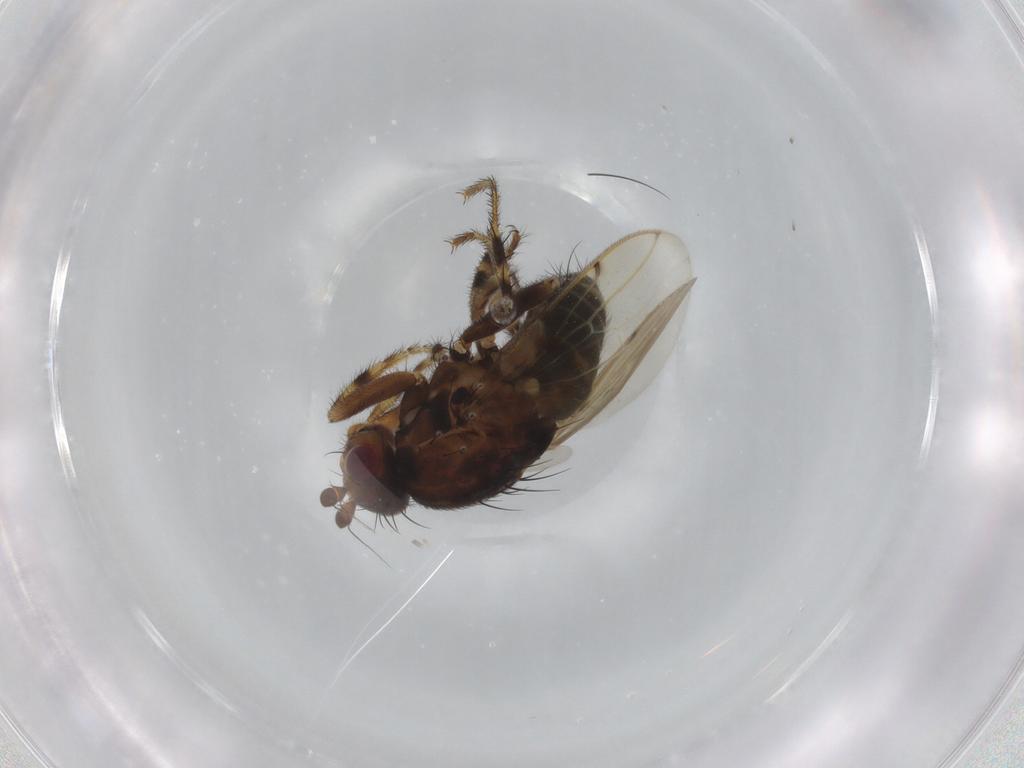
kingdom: Animalia
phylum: Arthropoda
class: Insecta
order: Diptera
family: Sphaeroceridae
